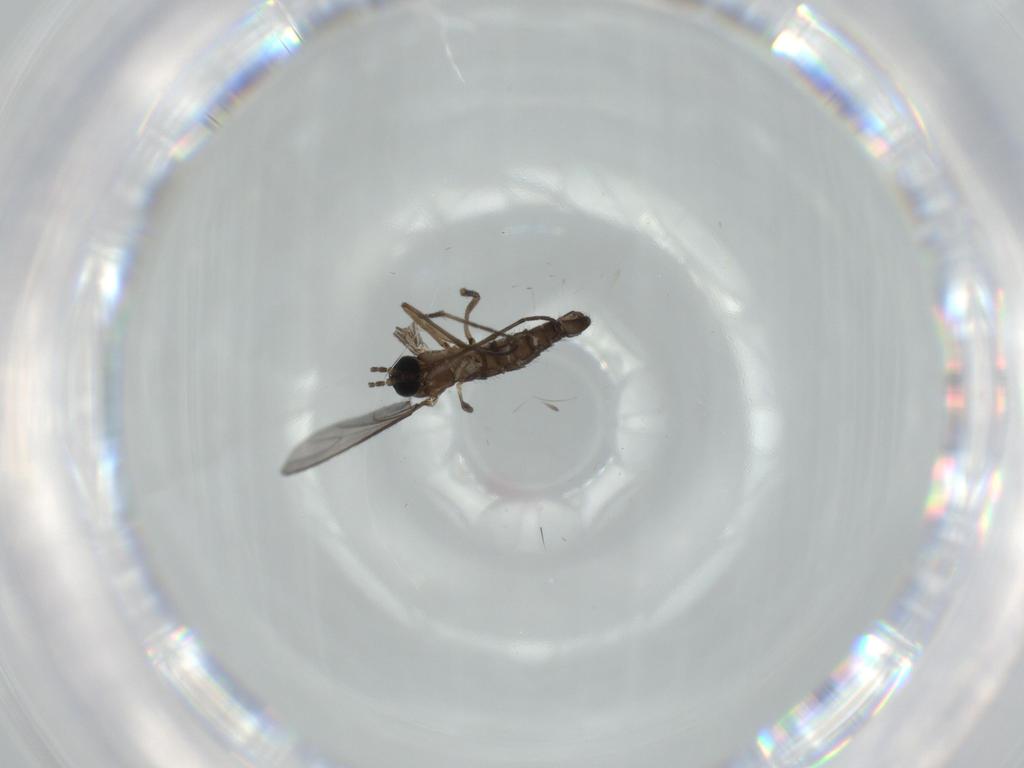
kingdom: Animalia
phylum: Arthropoda
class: Insecta
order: Diptera
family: Sciaridae
